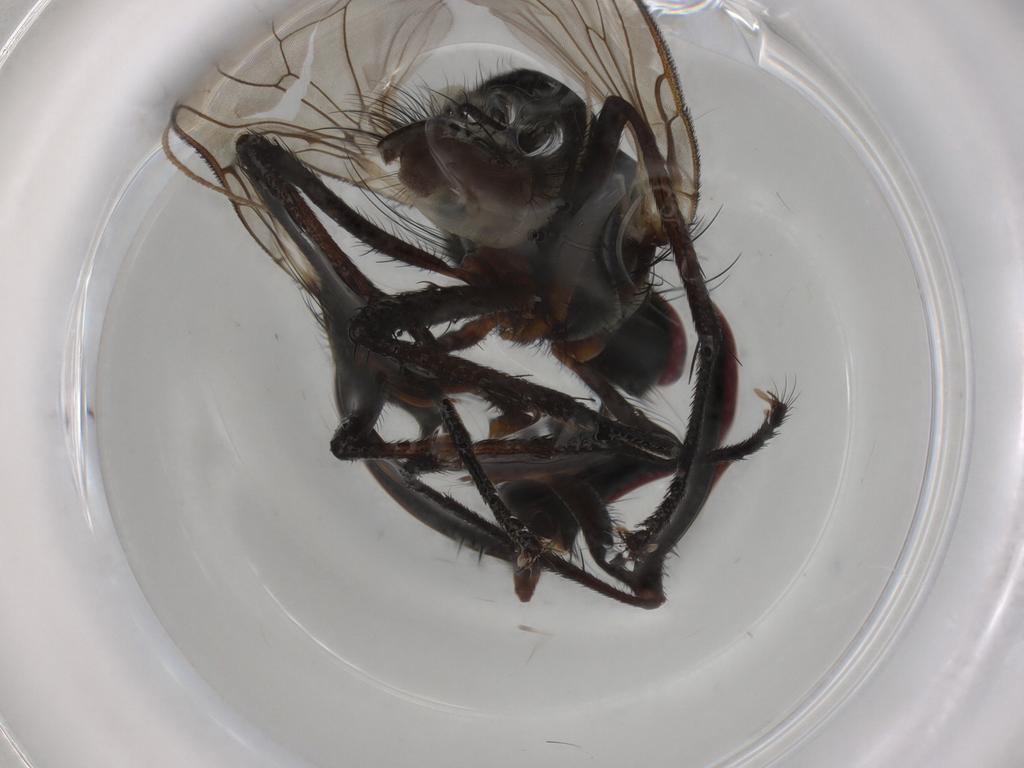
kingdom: Animalia
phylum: Arthropoda
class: Insecta
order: Diptera
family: Anthomyiidae
